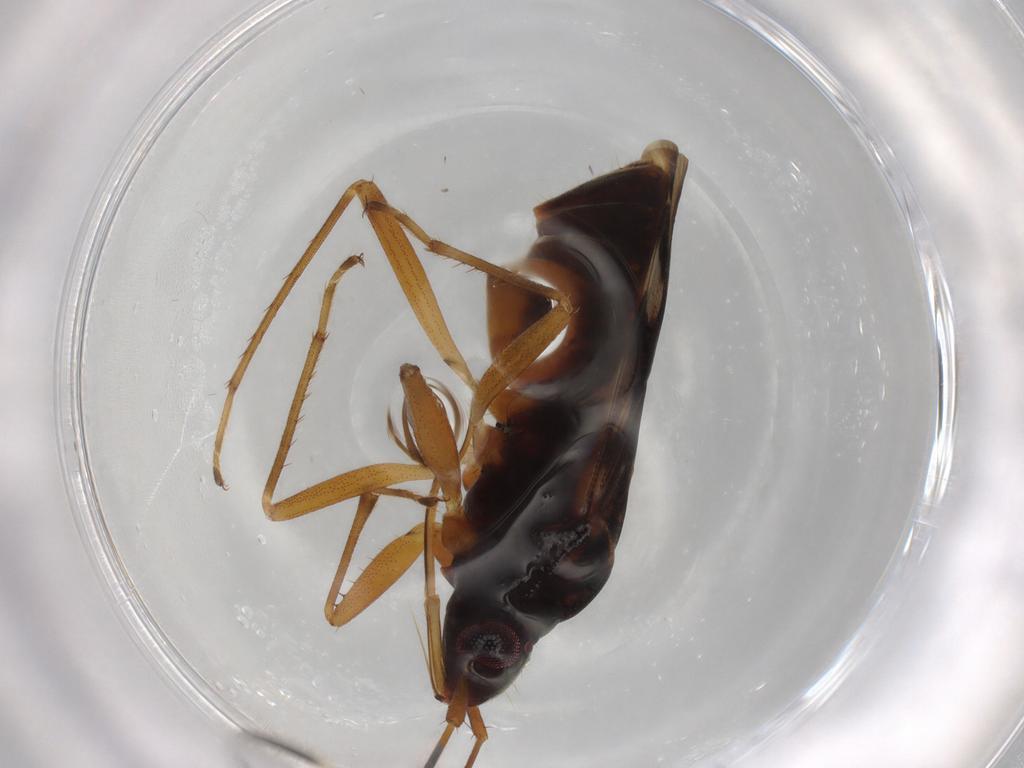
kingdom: Animalia
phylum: Arthropoda
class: Insecta
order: Hemiptera
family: Rhyparochromidae
